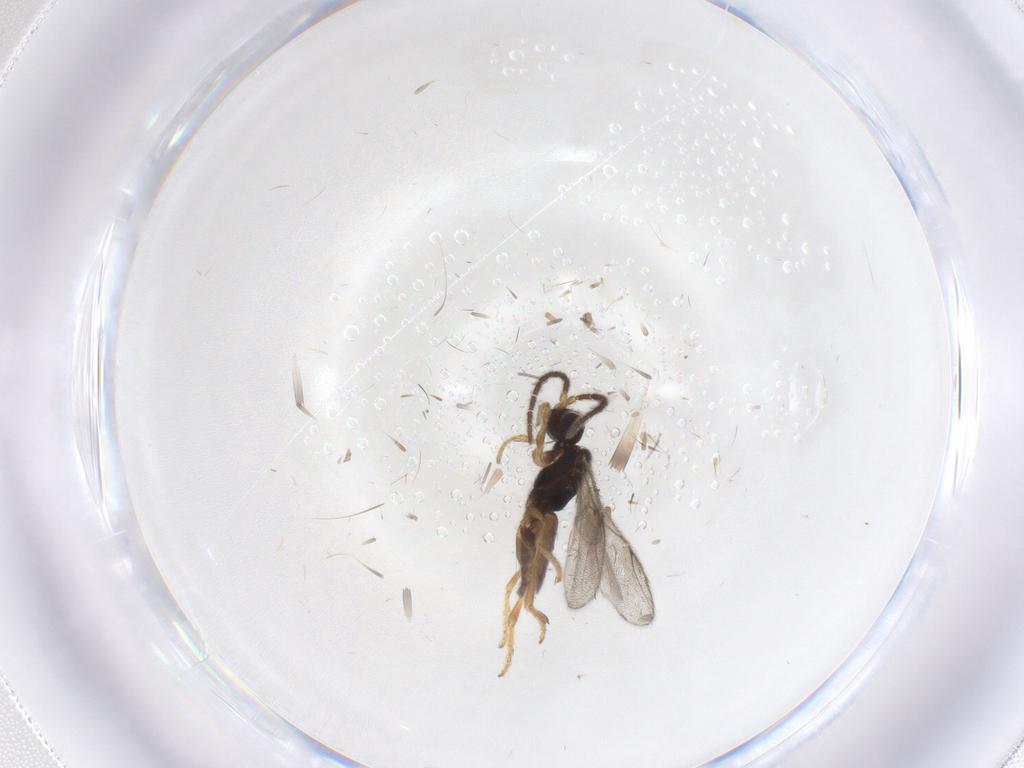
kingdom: Animalia
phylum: Arthropoda
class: Insecta
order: Hymenoptera
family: Dryinidae
